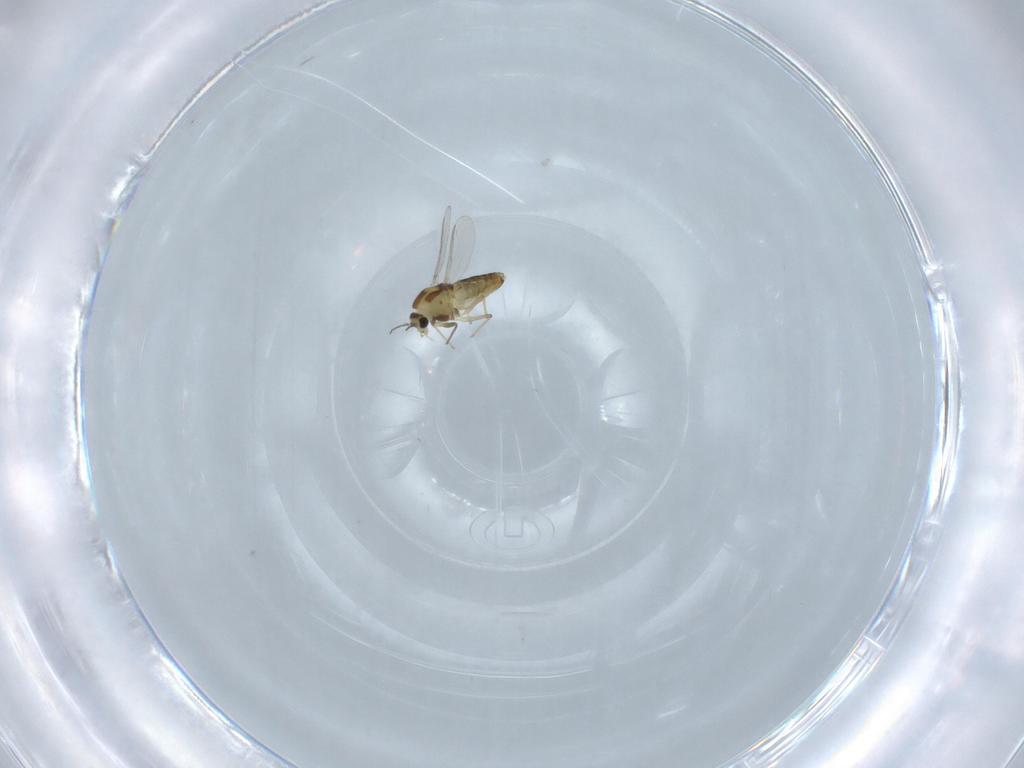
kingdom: Animalia
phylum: Arthropoda
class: Insecta
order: Diptera
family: Chironomidae
